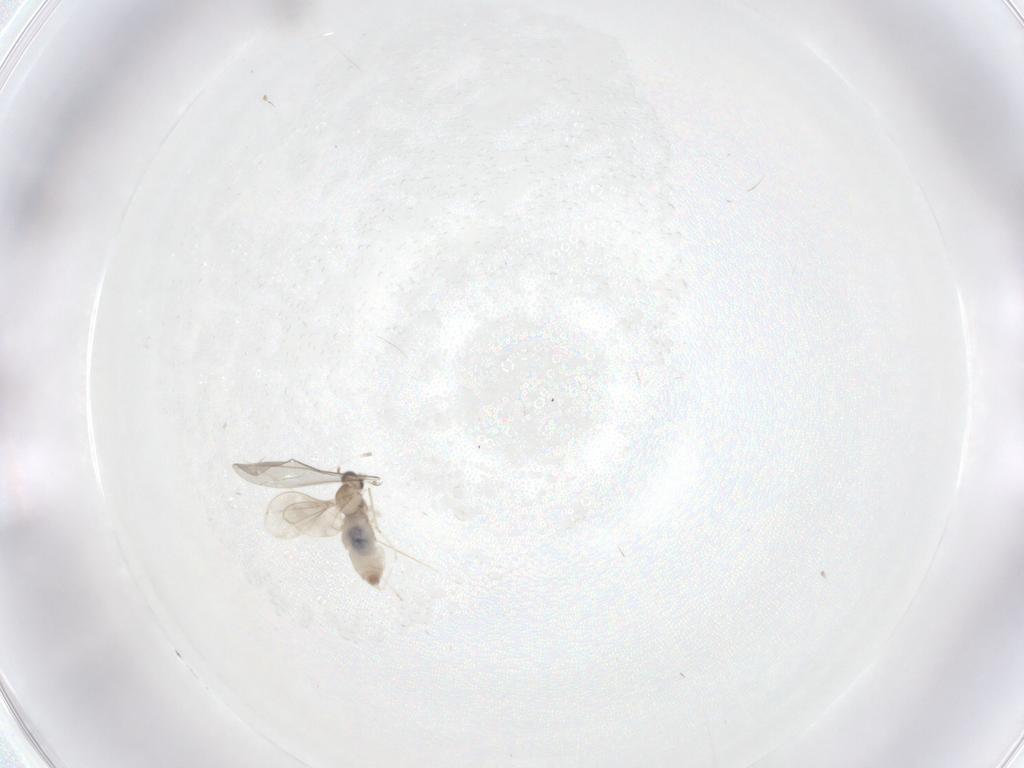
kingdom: Animalia
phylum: Arthropoda
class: Insecta
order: Diptera
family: Cecidomyiidae
